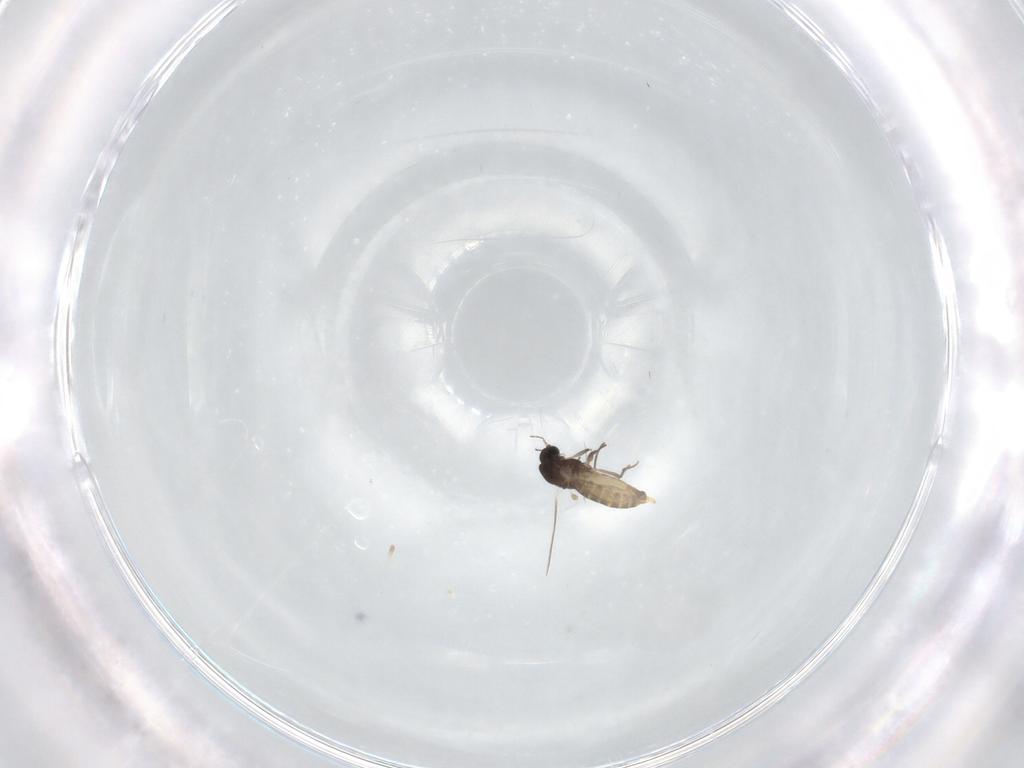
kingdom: Animalia
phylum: Arthropoda
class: Insecta
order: Diptera
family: Chironomidae
